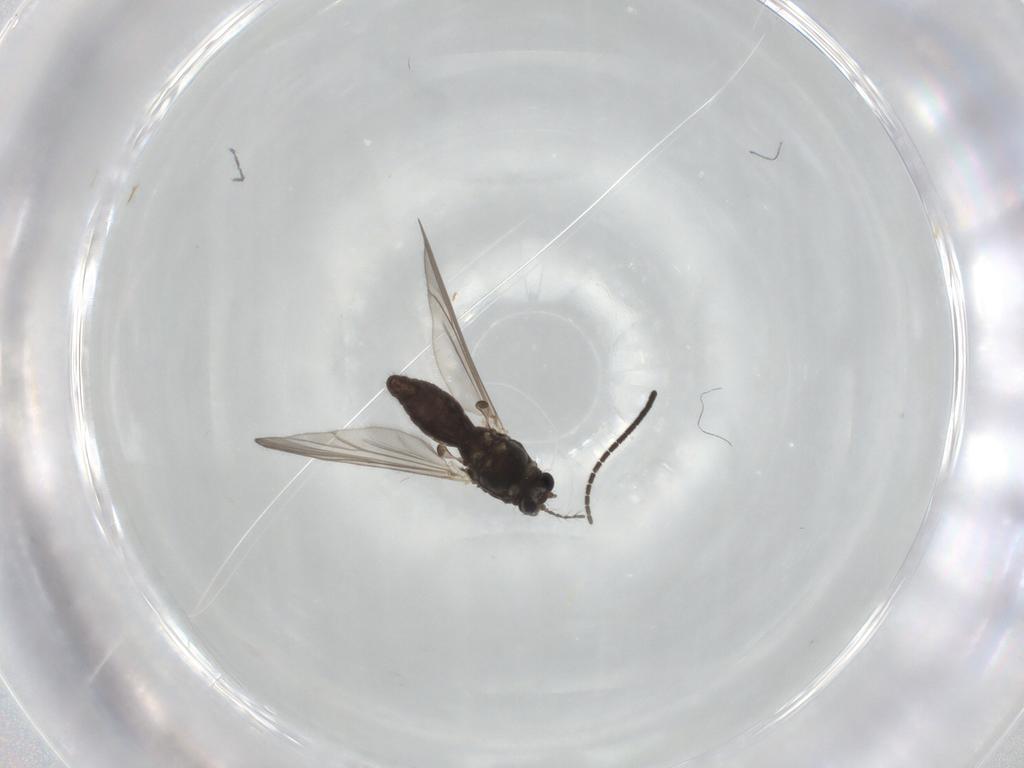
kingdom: Animalia
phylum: Arthropoda
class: Insecta
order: Diptera
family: Chironomidae
